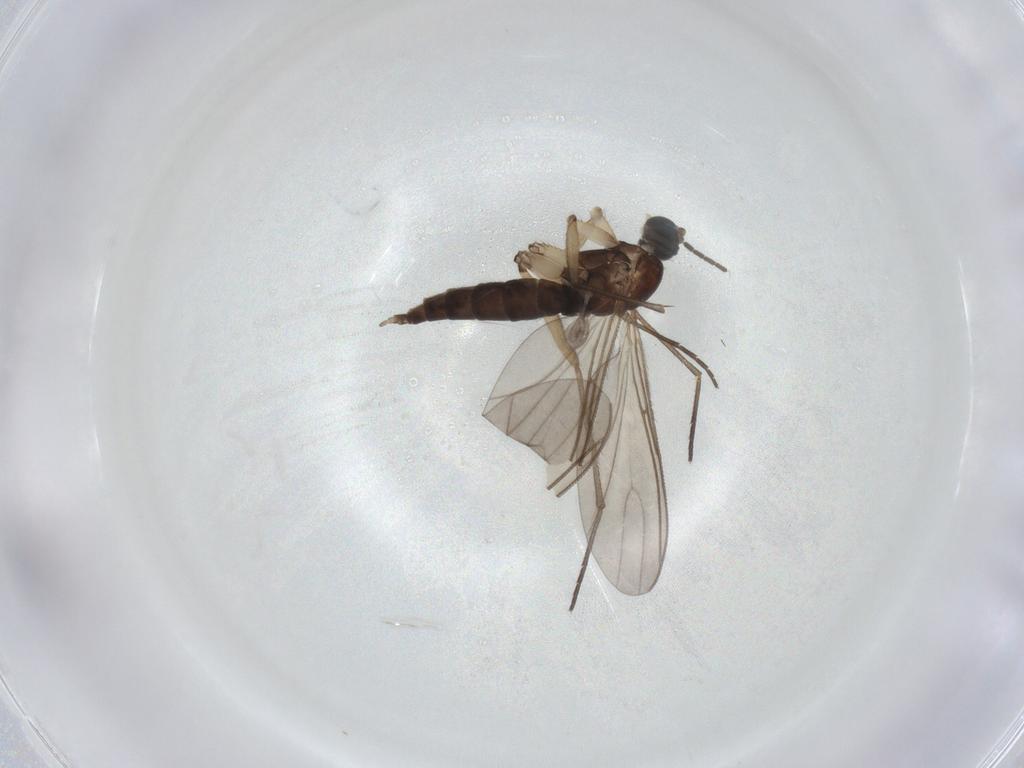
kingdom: Animalia
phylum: Arthropoda
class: Insecta
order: Diptera
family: Sciaridae
